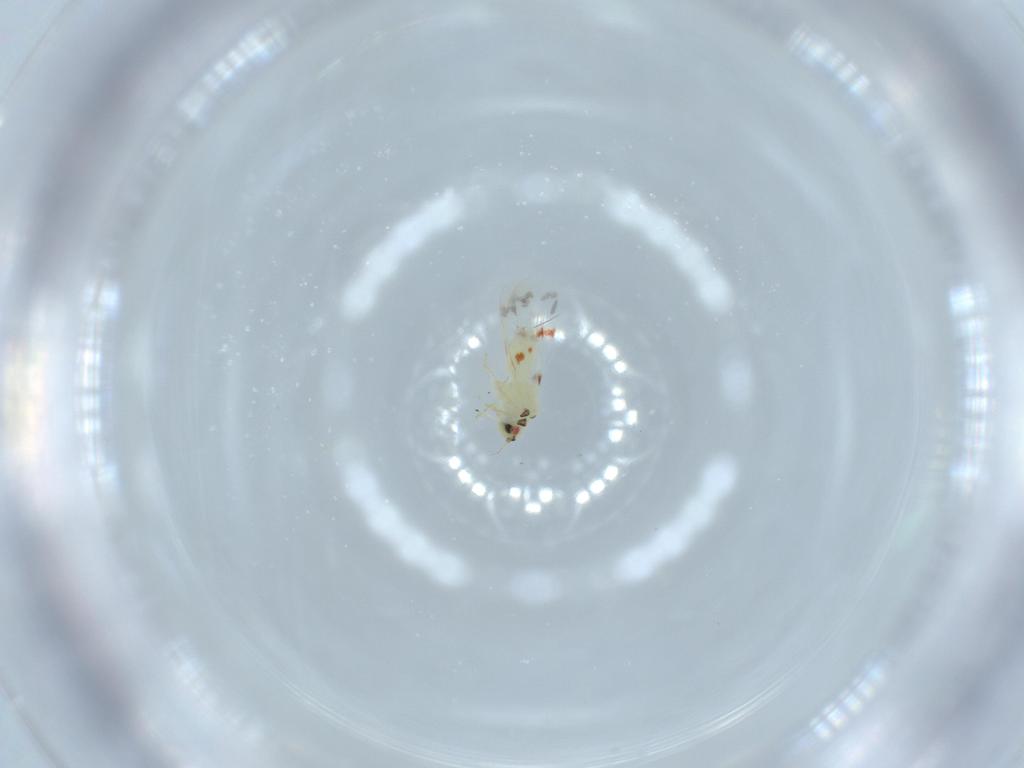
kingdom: Animalia
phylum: Arthropoda
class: Insecta
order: Hemiptera
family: Aleyrodidae
